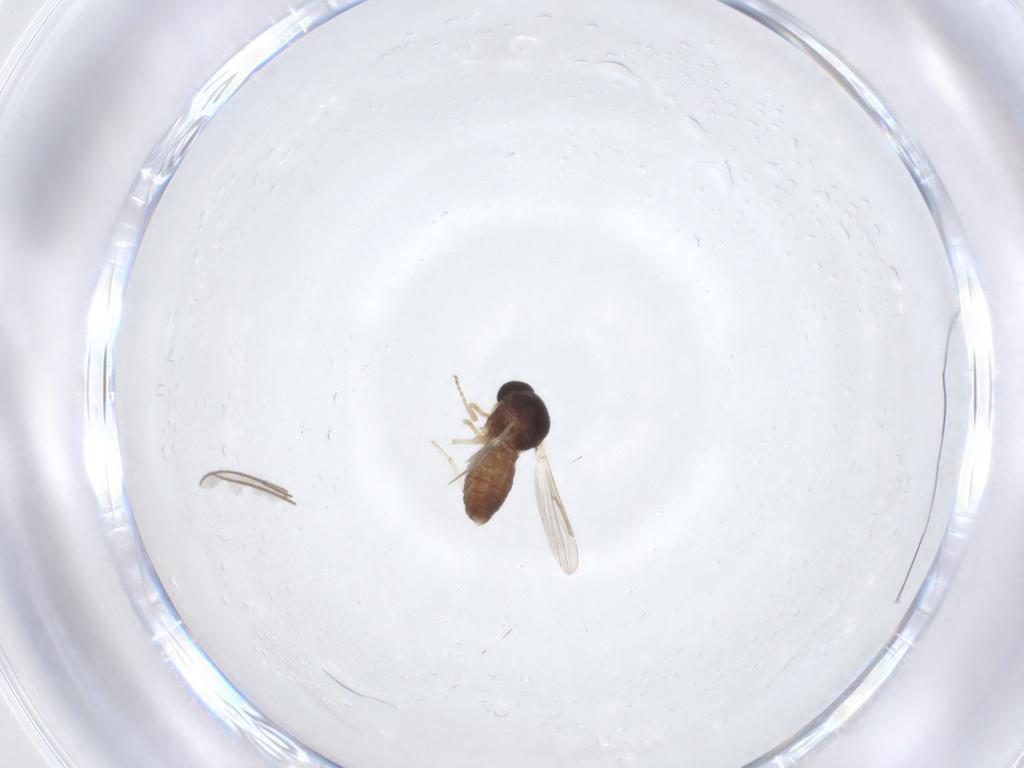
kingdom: Animalia
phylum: Arthropoda
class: Insecta
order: Diptera
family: Ceratopogonidae
